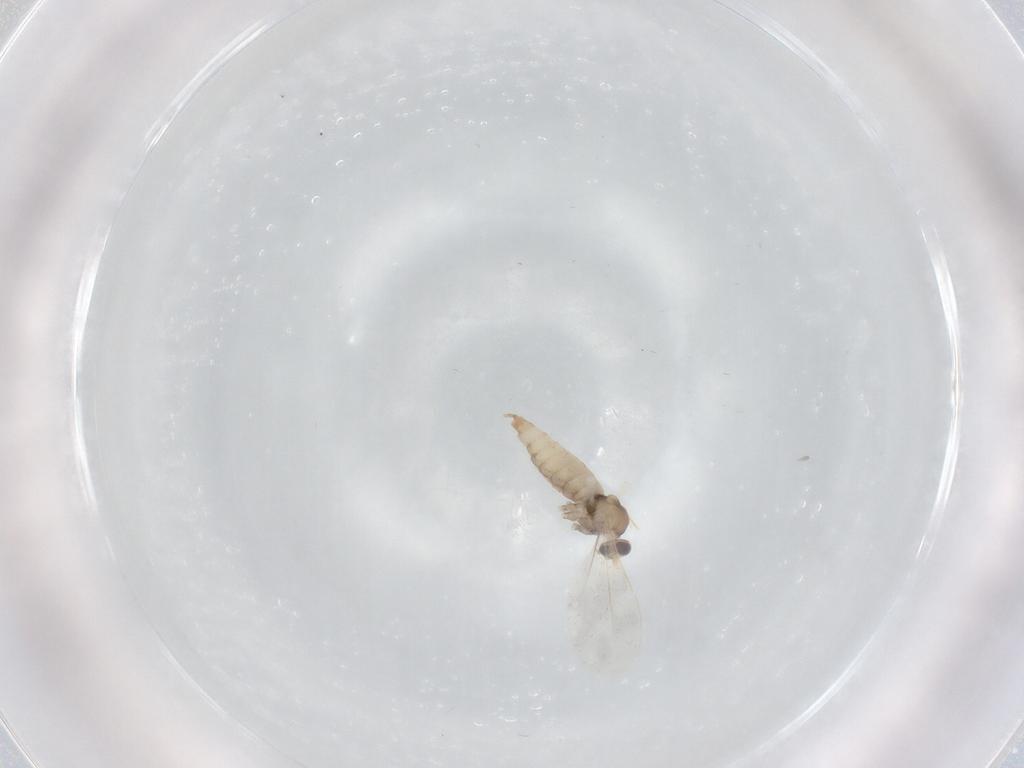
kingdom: Animalia
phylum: Arthropoda
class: Insecta
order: Diptera
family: Cecidomyiidae
